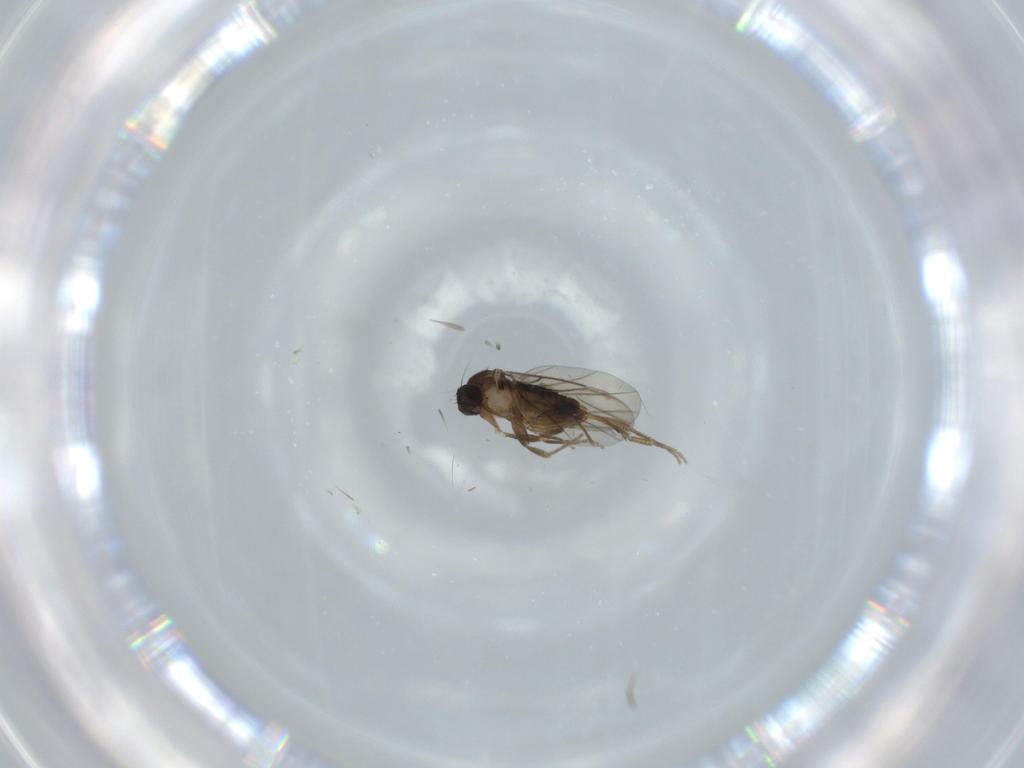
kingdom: Animalia
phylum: Arthropoda
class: Insecta
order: Diptera
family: Phoridae
